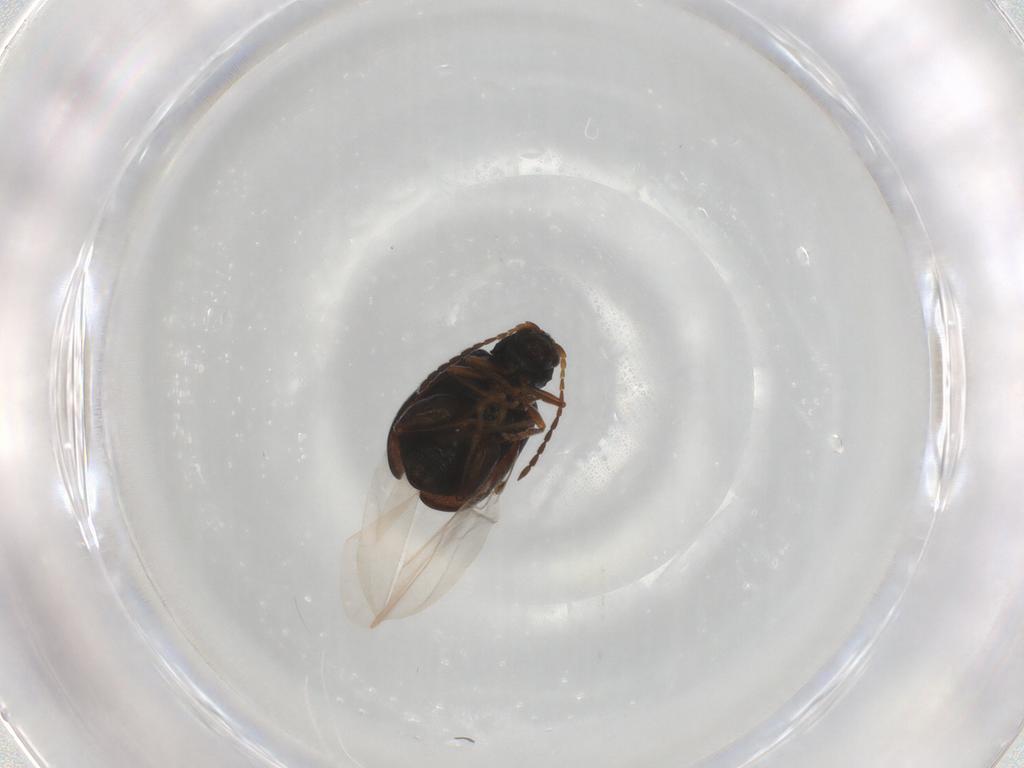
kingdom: Animalia
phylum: Arthropoda
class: Insecta
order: Coleoptera
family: Chrysomelidae
